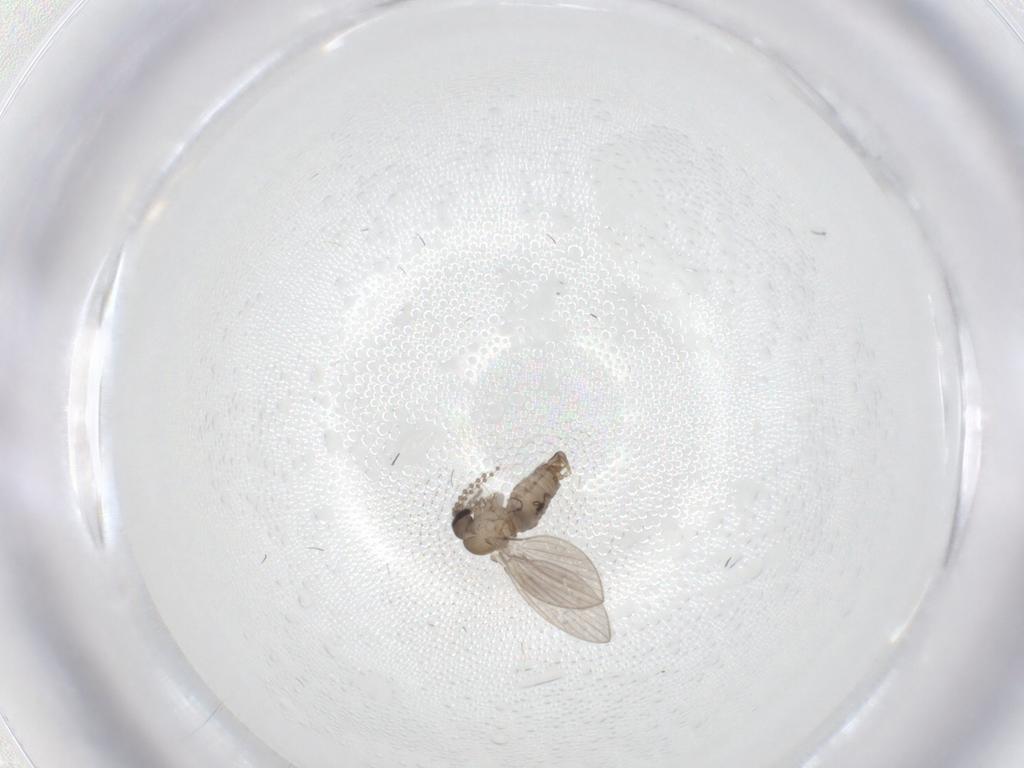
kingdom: Animalia
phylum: Arthropoda
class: Insecta
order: Diptera
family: Psychodidae
